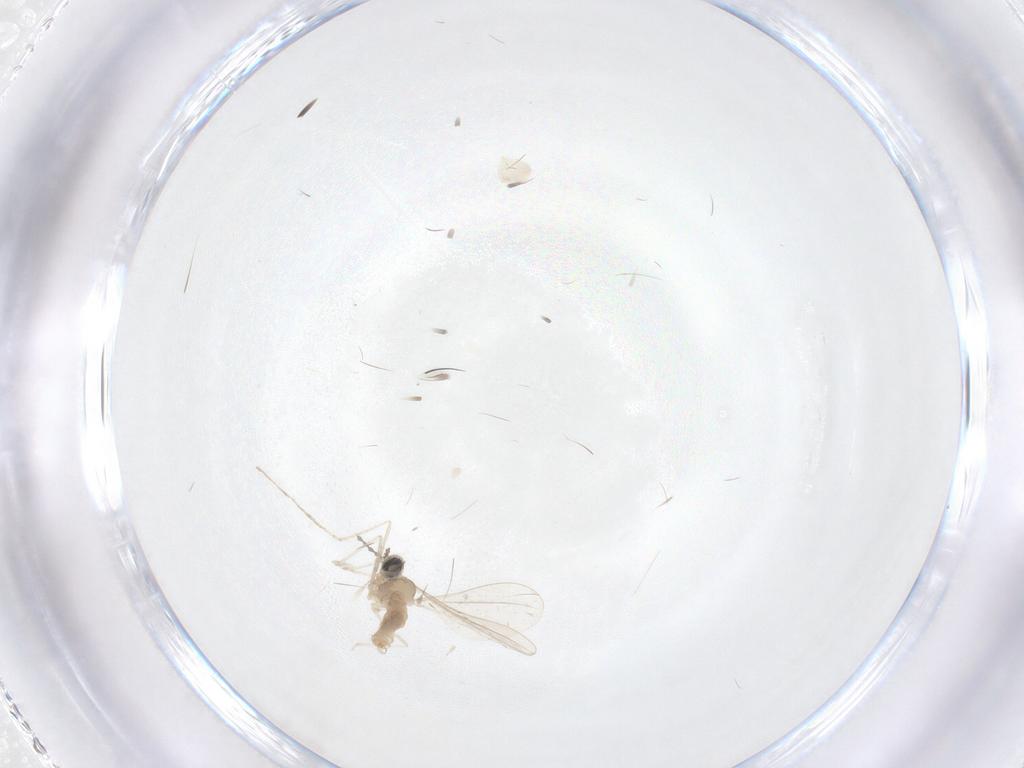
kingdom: Animalia
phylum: Arthropoda
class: Insecta
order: Diptera
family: Cecidomyiidae
